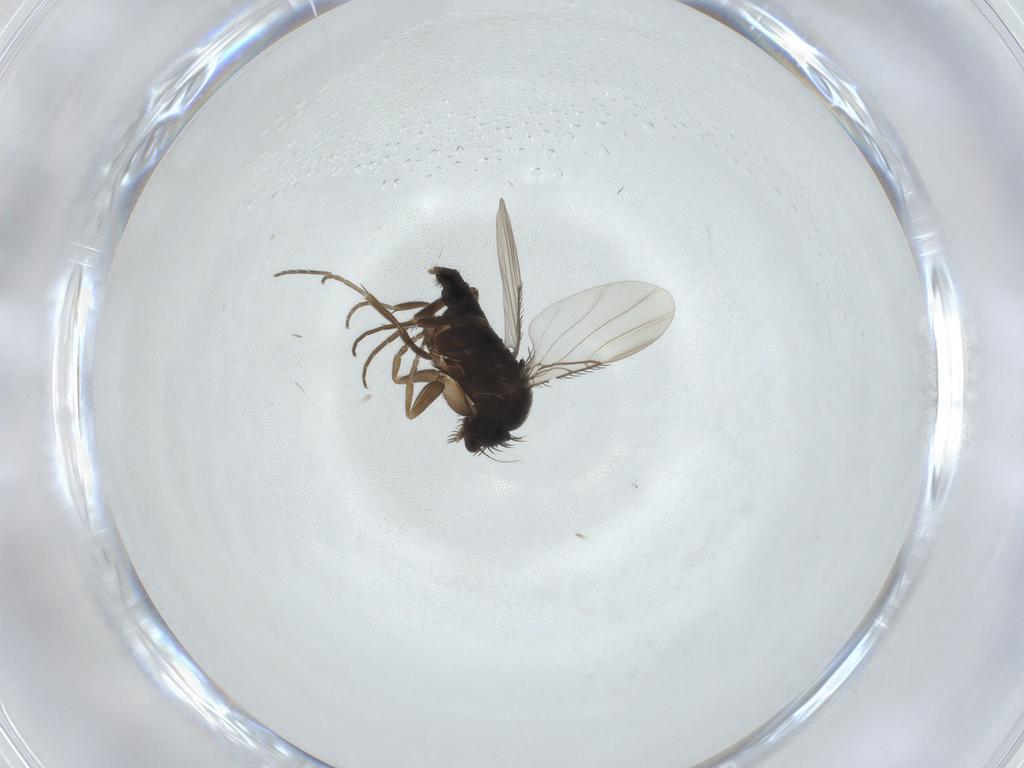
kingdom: Animalia
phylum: Arthropoda
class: Insecta
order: Diptera
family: Phoridae
